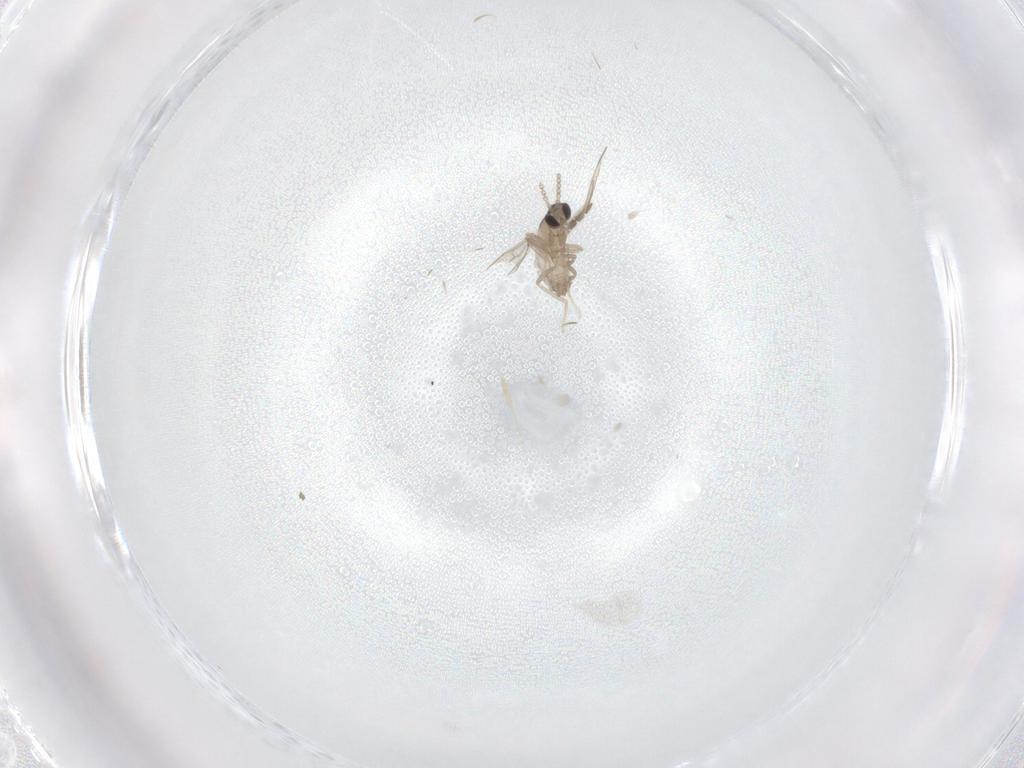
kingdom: Animalia
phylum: Arthropoda
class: Insecta
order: Diptera
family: Cecidomyiidae
